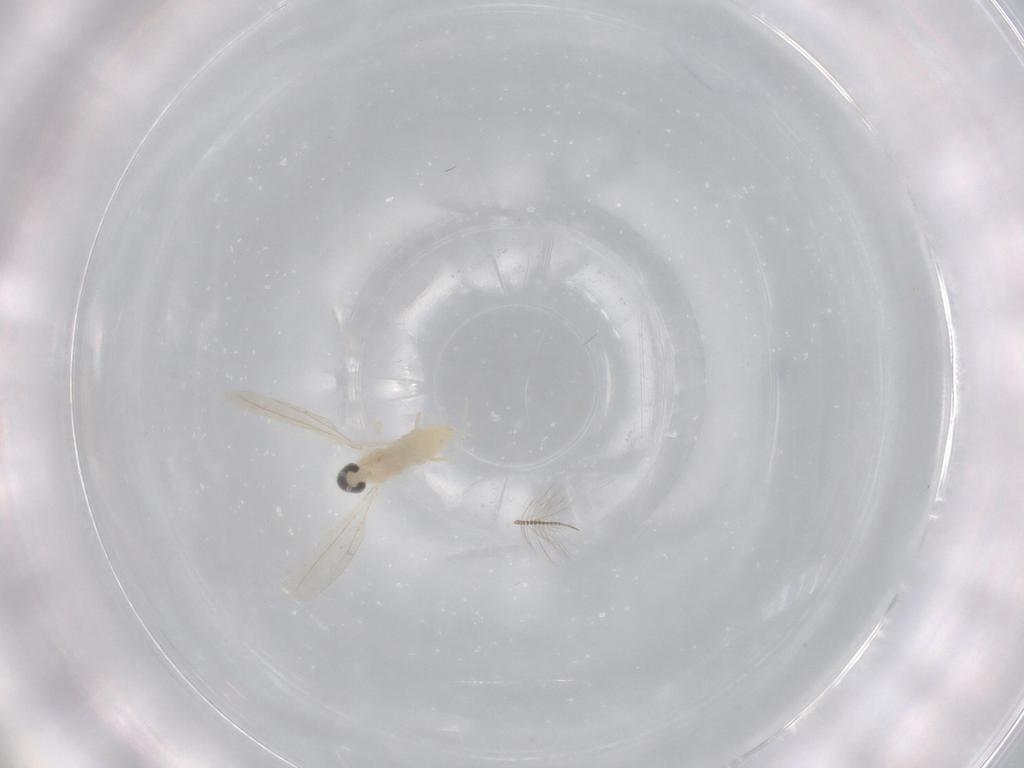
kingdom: Animalia
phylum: Arthropoda
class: Insecta
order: Diptera
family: Cecidomyiidae
